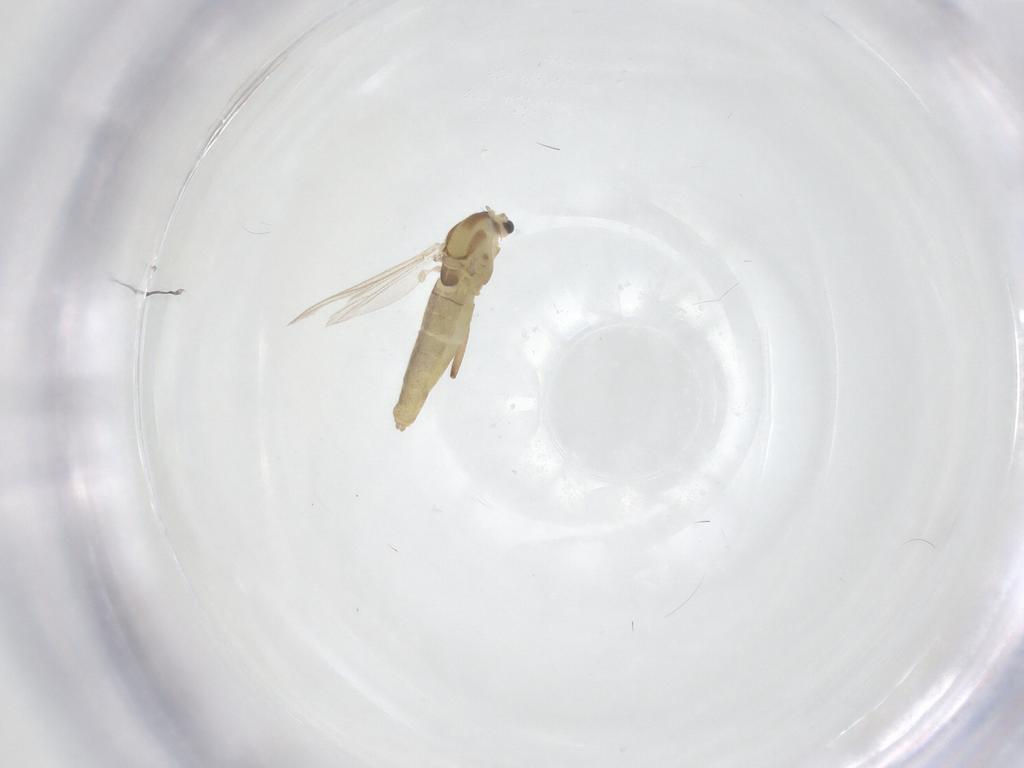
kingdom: Animalia
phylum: Arthropoda
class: Insecta
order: Diptera
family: Chironomidae
